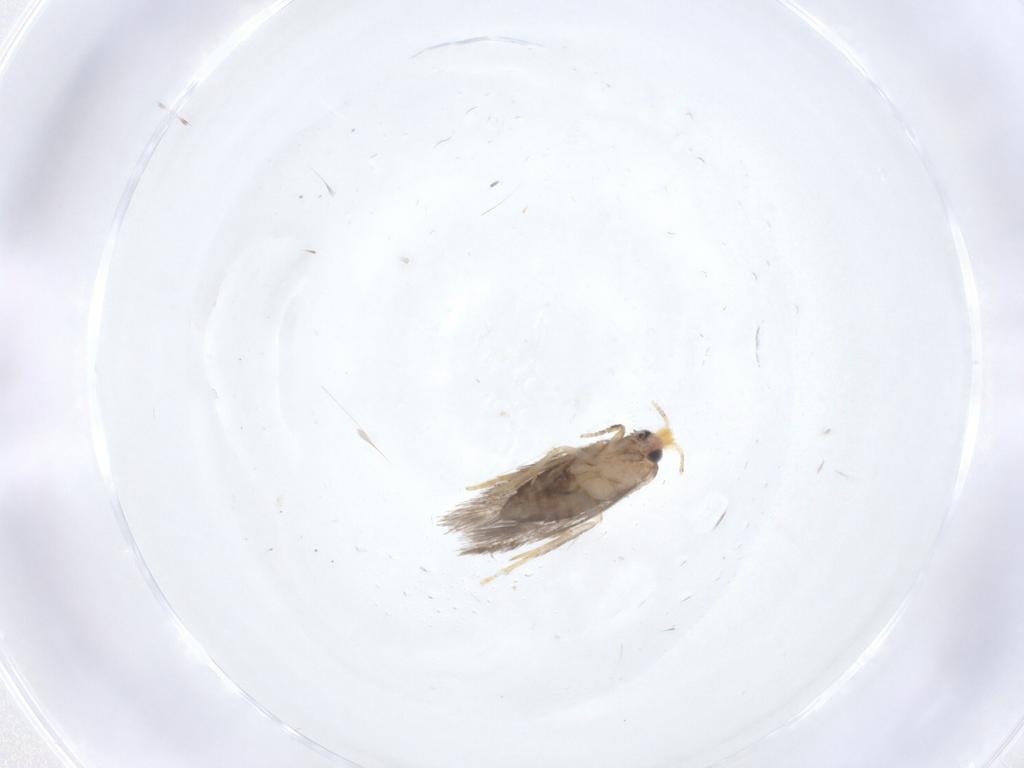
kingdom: Animalia
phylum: Arthropoda
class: Insecta
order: Lepidoptera
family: Nepticulidae
